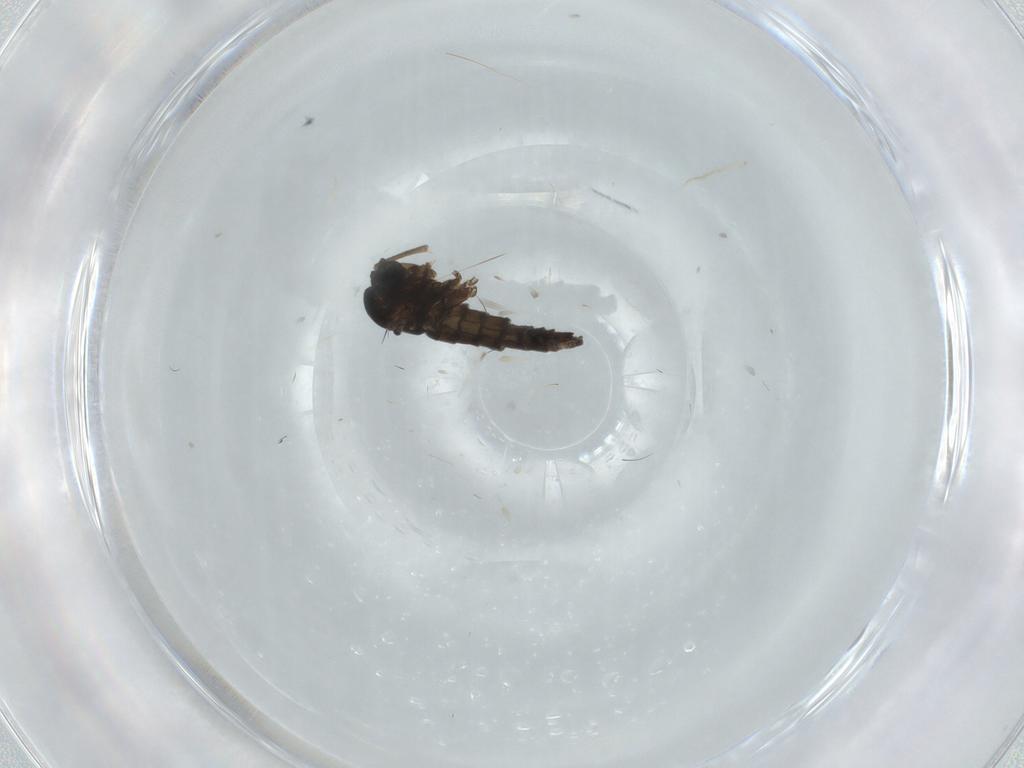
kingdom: Animalia
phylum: Arthropoda
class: Insecta
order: Diptera
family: Sciaridae
